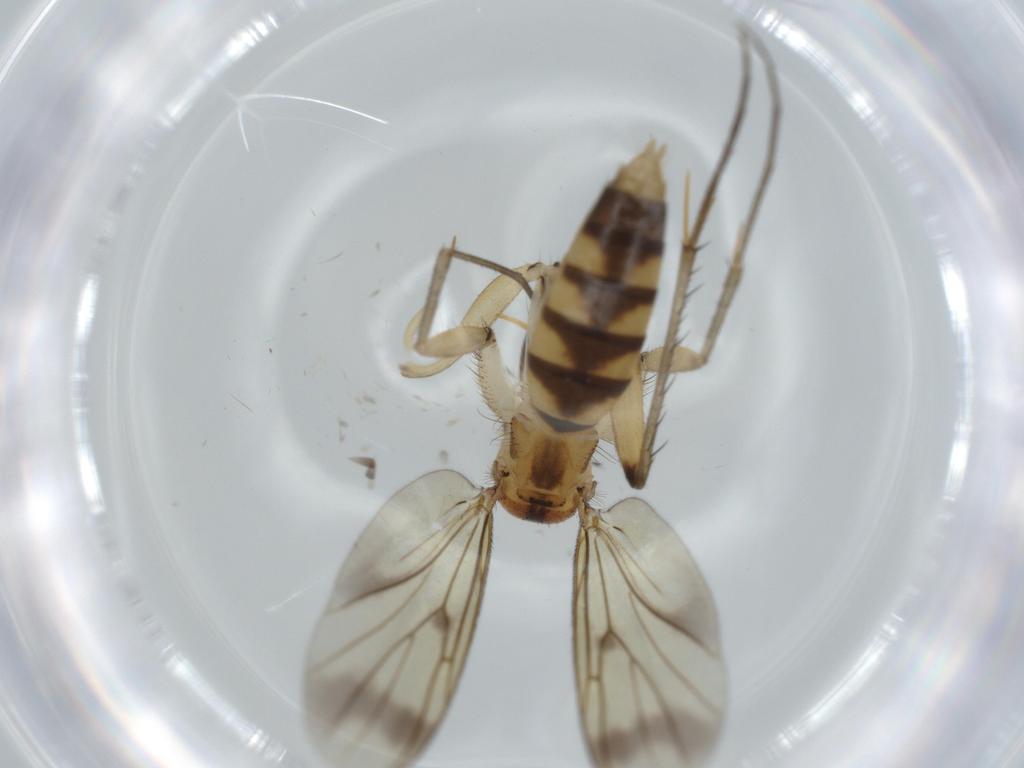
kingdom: Animalia
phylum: Arthropoda
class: Insecta
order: Diptera
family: Mycetophilidae
